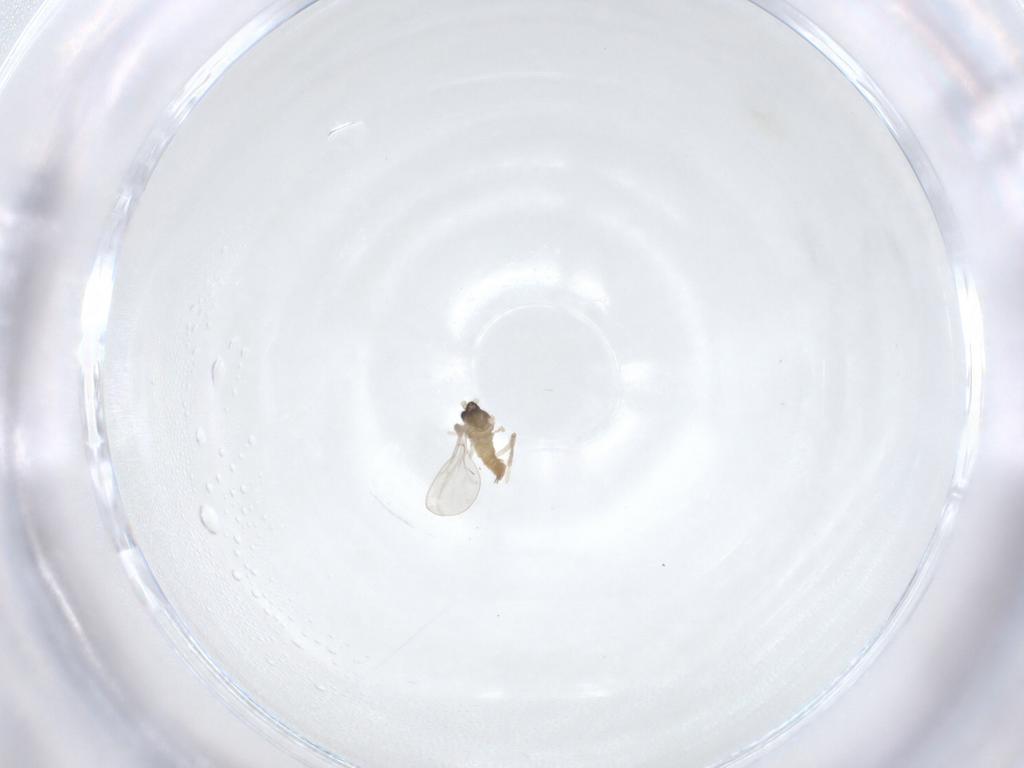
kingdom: Animalia
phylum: Arthropoda
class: Insecta
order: Diptera
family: Cecidomyiidae
